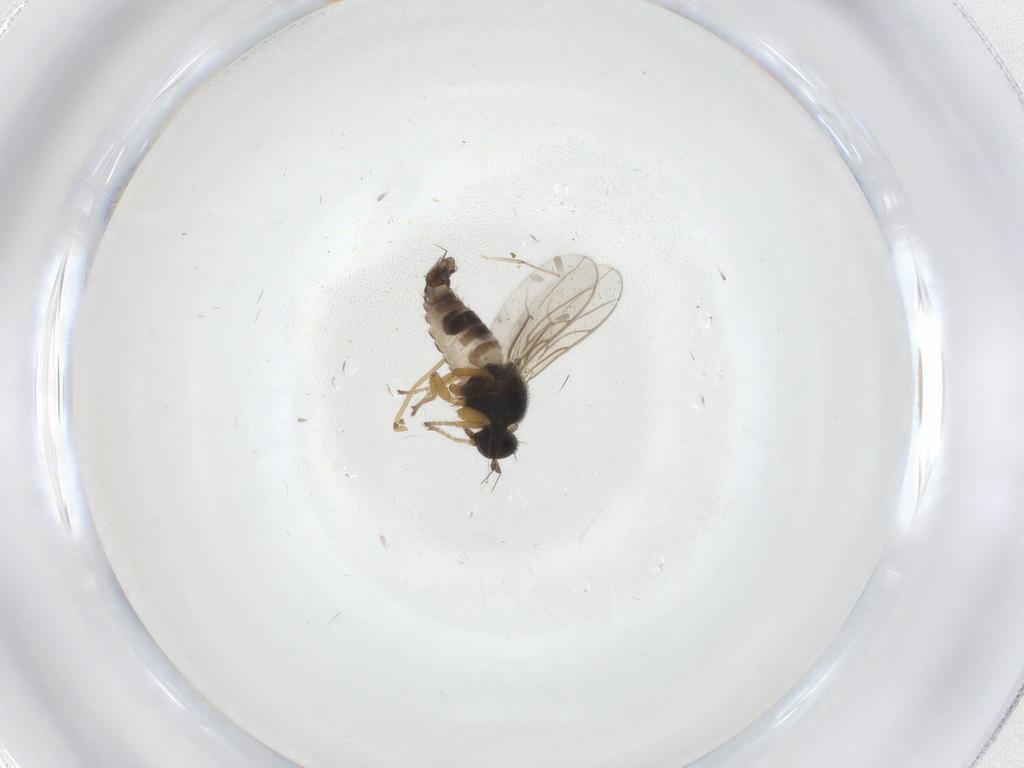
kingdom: Animalia
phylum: Arthropoda
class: Insecta
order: Diptera
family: Hybotidae
